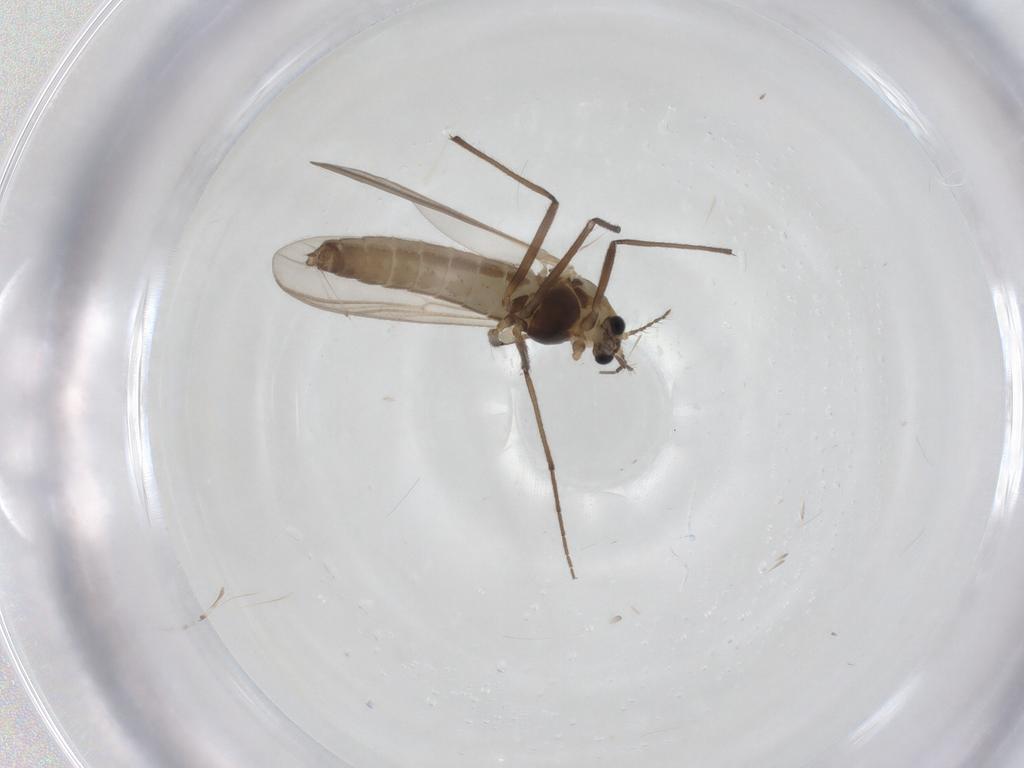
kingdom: Animalia
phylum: Arthropoda
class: Insecta
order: Diptera
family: Chironomidae
